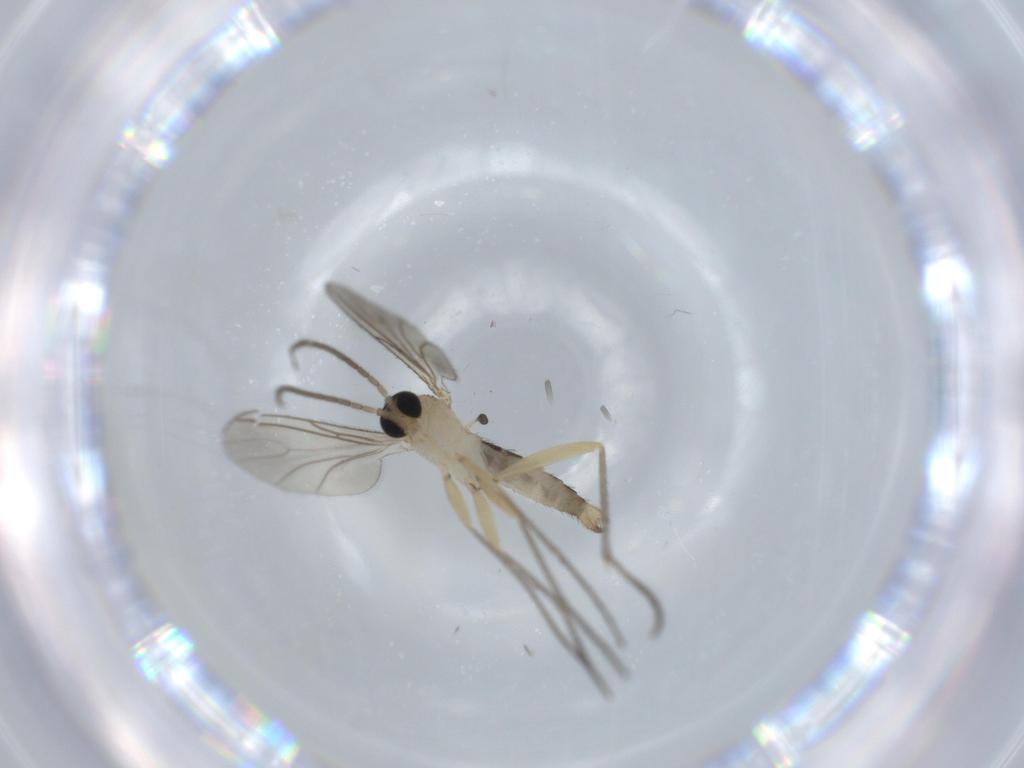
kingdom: Animalia
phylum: Arthropoda
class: Insecta
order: Diptera
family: Sciaridae
